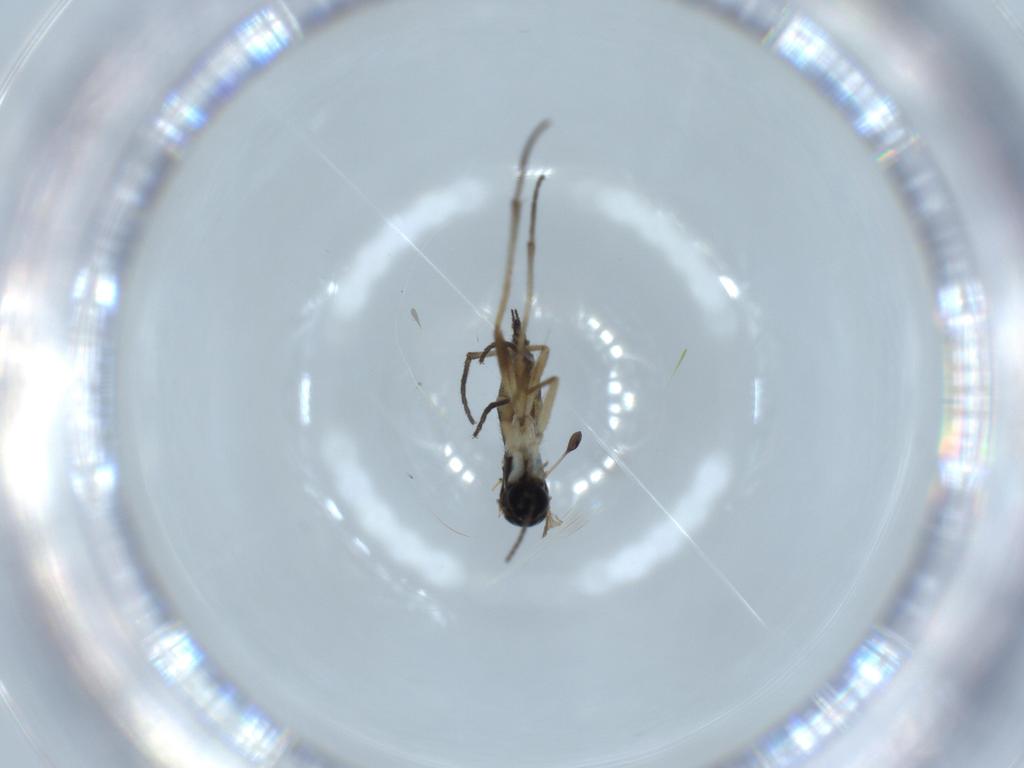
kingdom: Animalia
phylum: Arthropoda
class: Insecta
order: Diptera
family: Sciaridae
